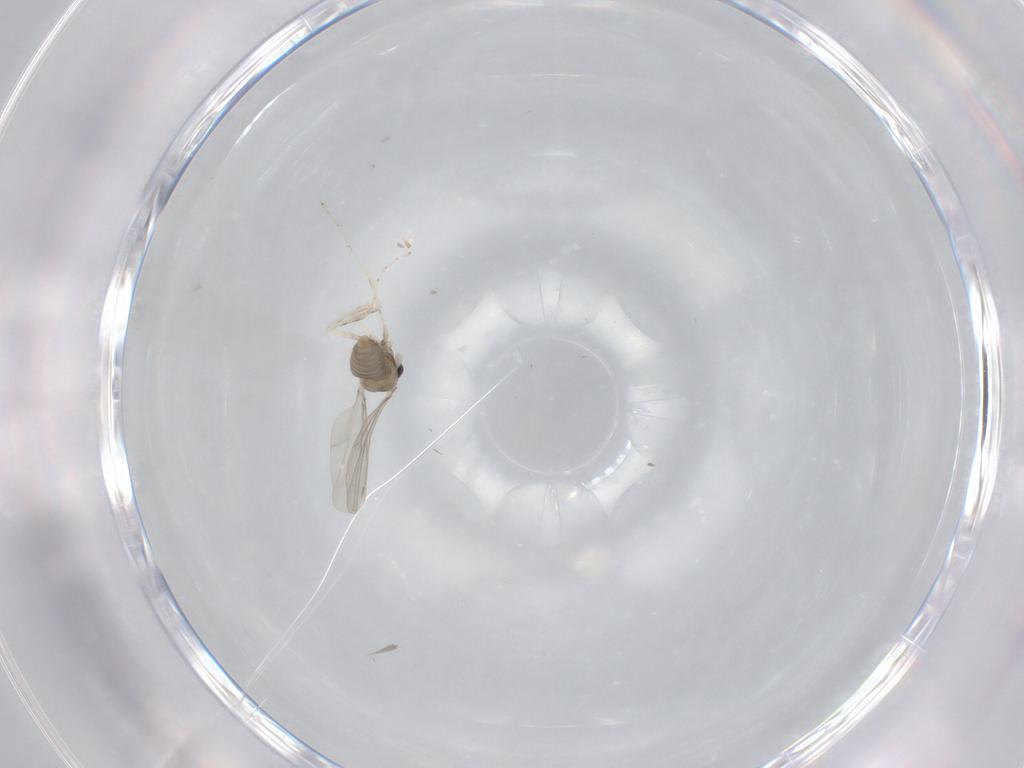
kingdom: Animalia
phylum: Arthropoda
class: Insecta
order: Diptera
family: Cecidomyiidae
